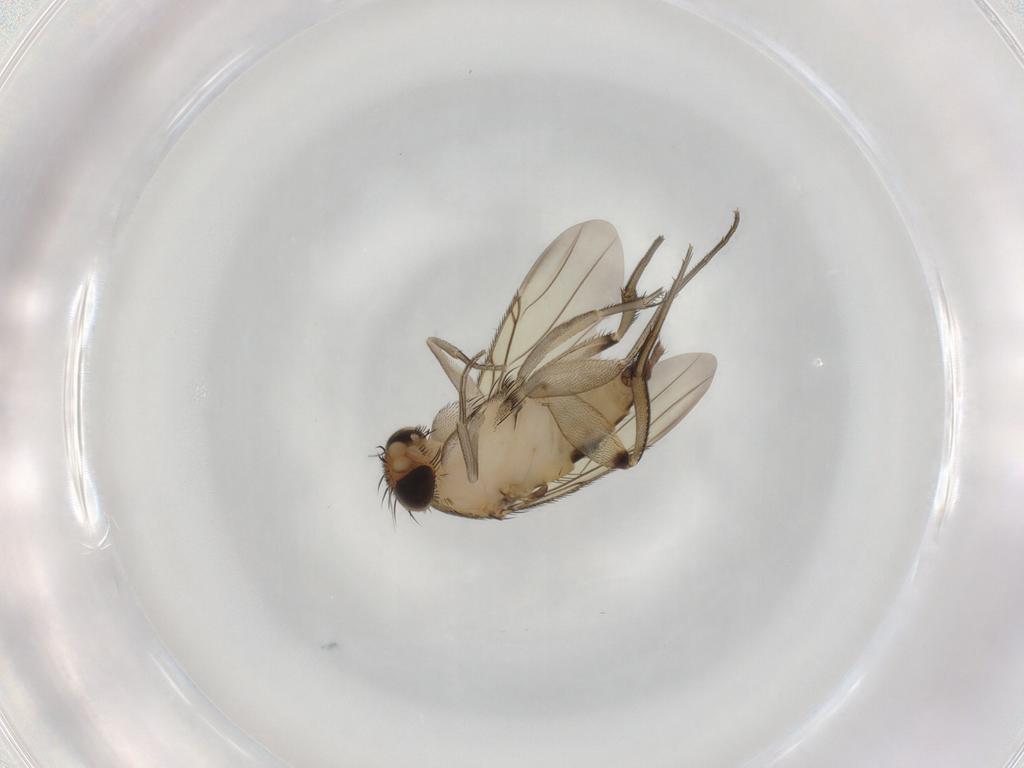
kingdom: Animalia
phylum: Arthropoda
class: Insecta
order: Diptera
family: Phoridae
